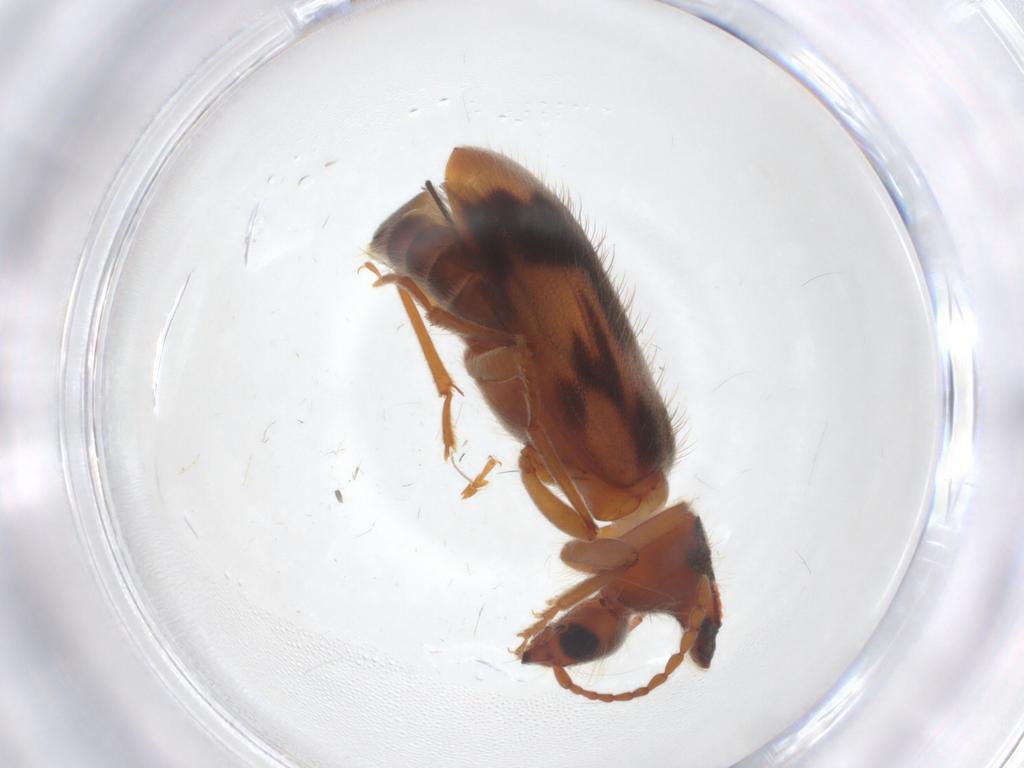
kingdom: Animalia
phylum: Arthropoda
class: Insecta
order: Coleoptera
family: Anthicidae
